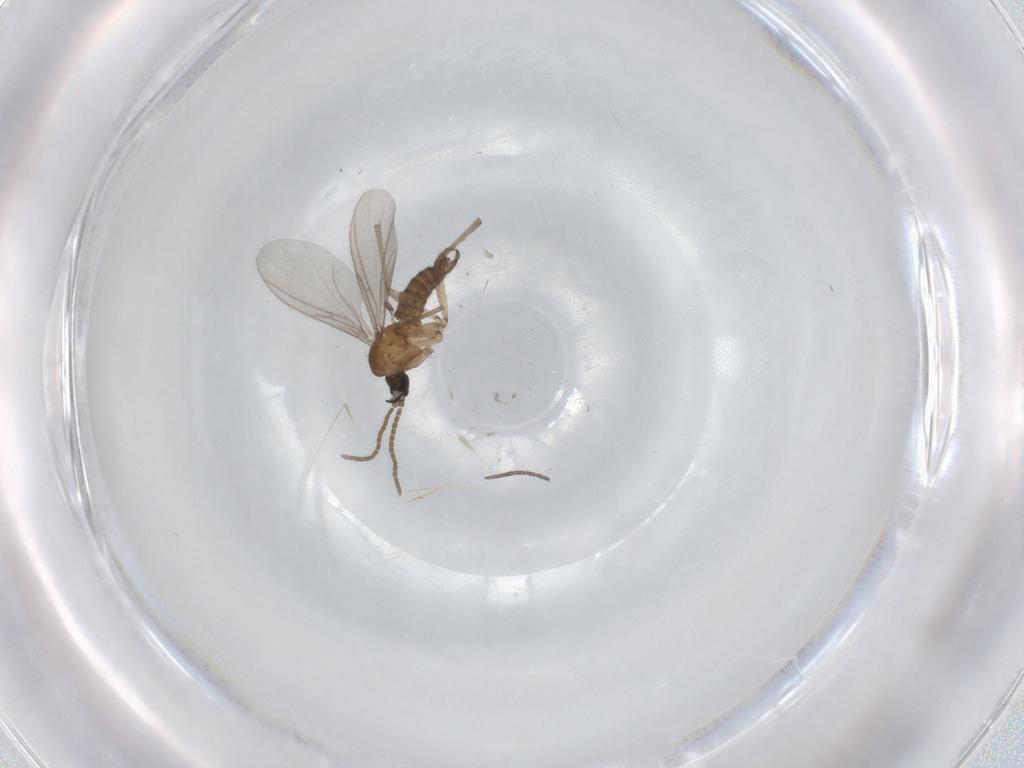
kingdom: Animalia
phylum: Arthropoda
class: Insecta
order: Diptera
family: Sciaridae
